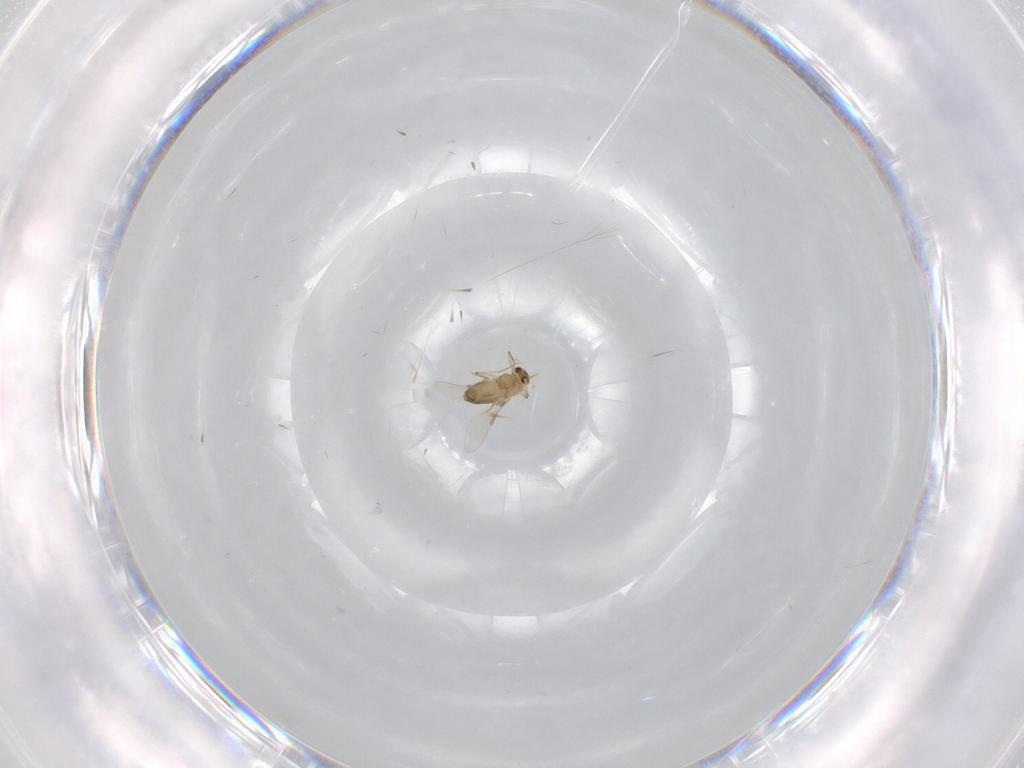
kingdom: Animalia
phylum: Arthropoda
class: Insecta
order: Diptera
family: Chironomidae
